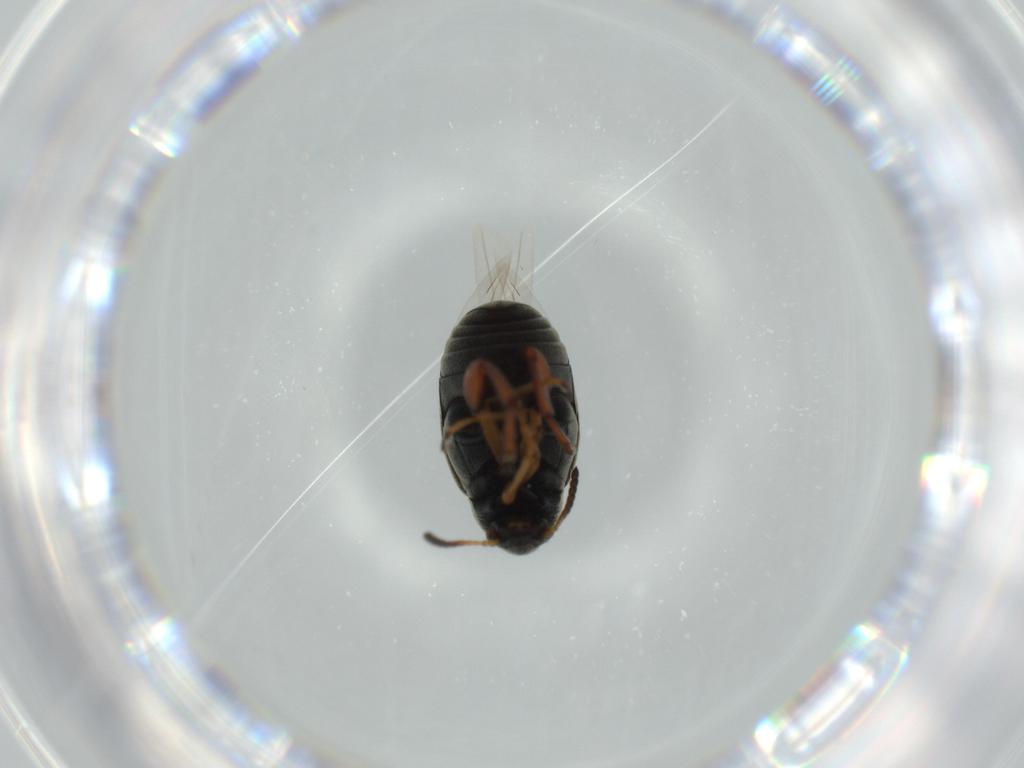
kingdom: Animalia
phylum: Arthropoda
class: Insecta
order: Coleoptera
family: Chrysomelidae
